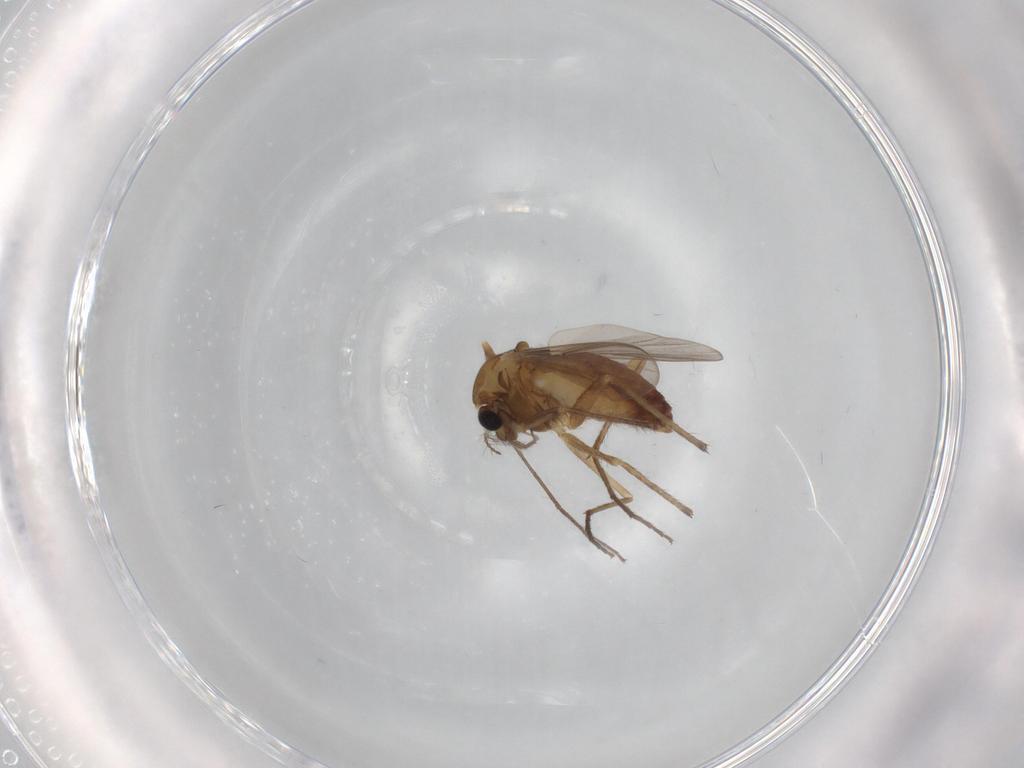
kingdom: Animalia
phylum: Arthropoda
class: Insecta
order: Diptera
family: Chironomidae
